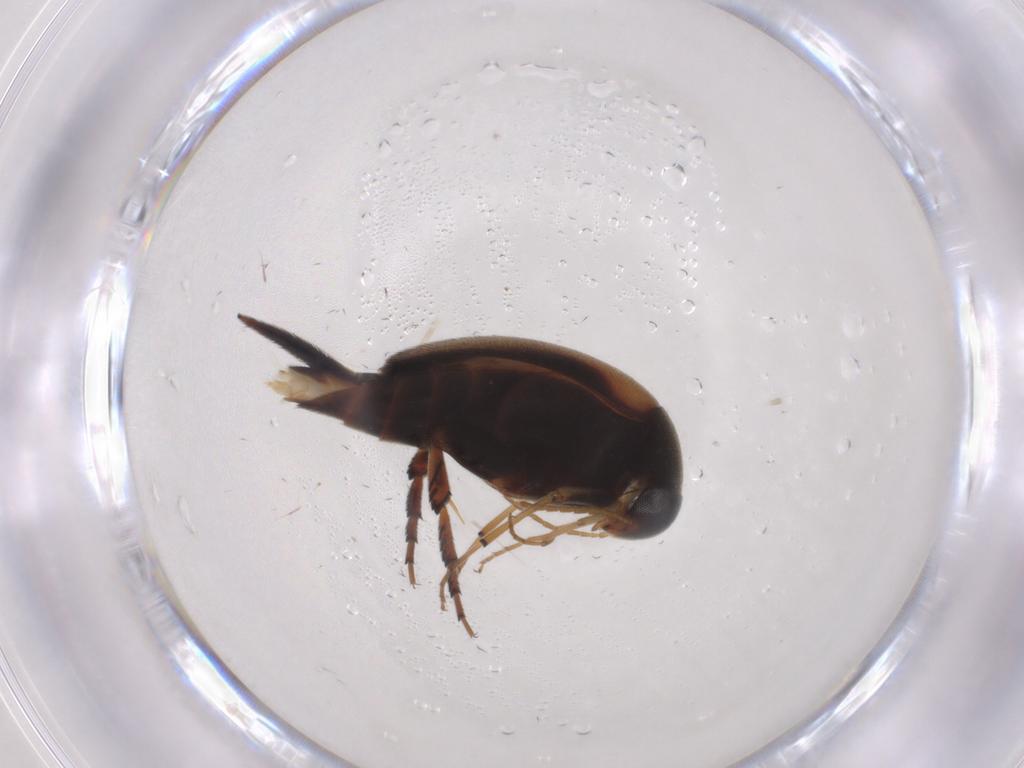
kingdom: Animalia
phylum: Arthropoda
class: Insecta
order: Coleoptera
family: Mordellidae
